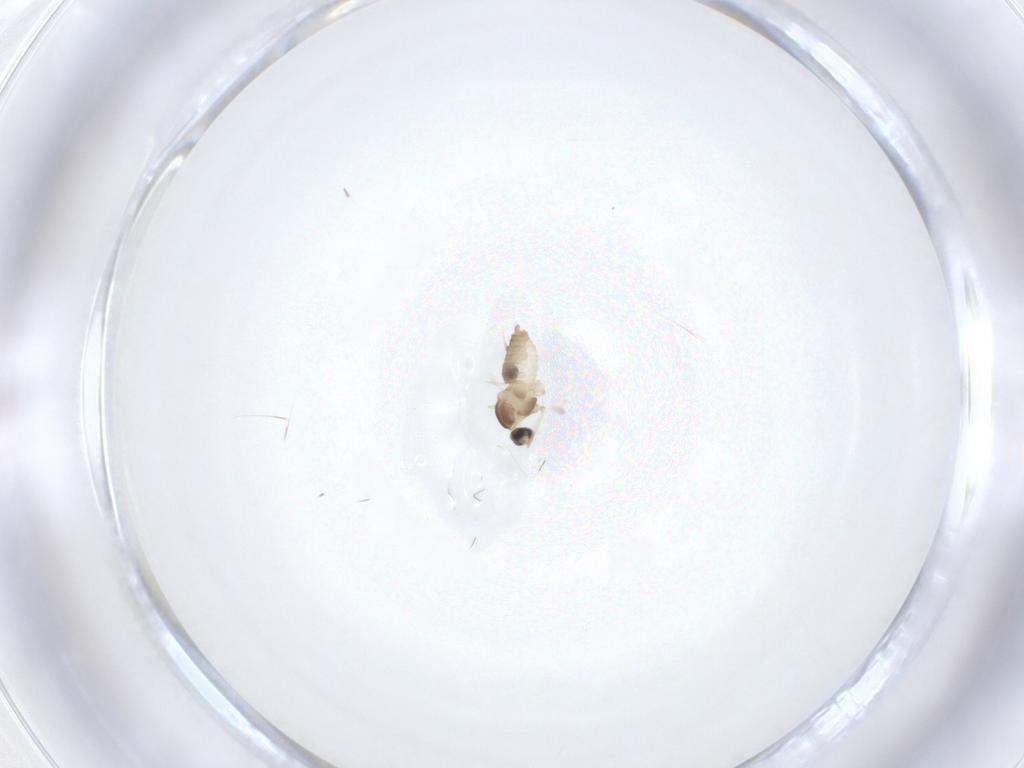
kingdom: Animalia
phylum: Arthropoda
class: Insecta
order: Diptera
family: Cecidomyiidae
